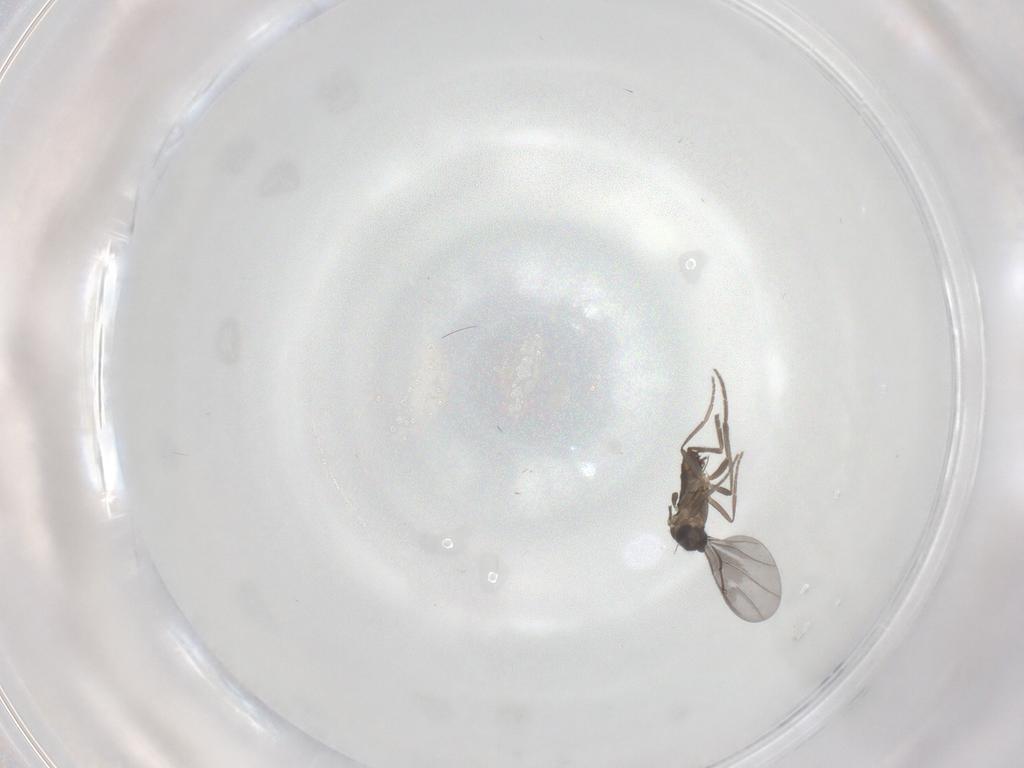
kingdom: Animalia
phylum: Arthropoda
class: Insecta
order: Diptera
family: Phoridae
